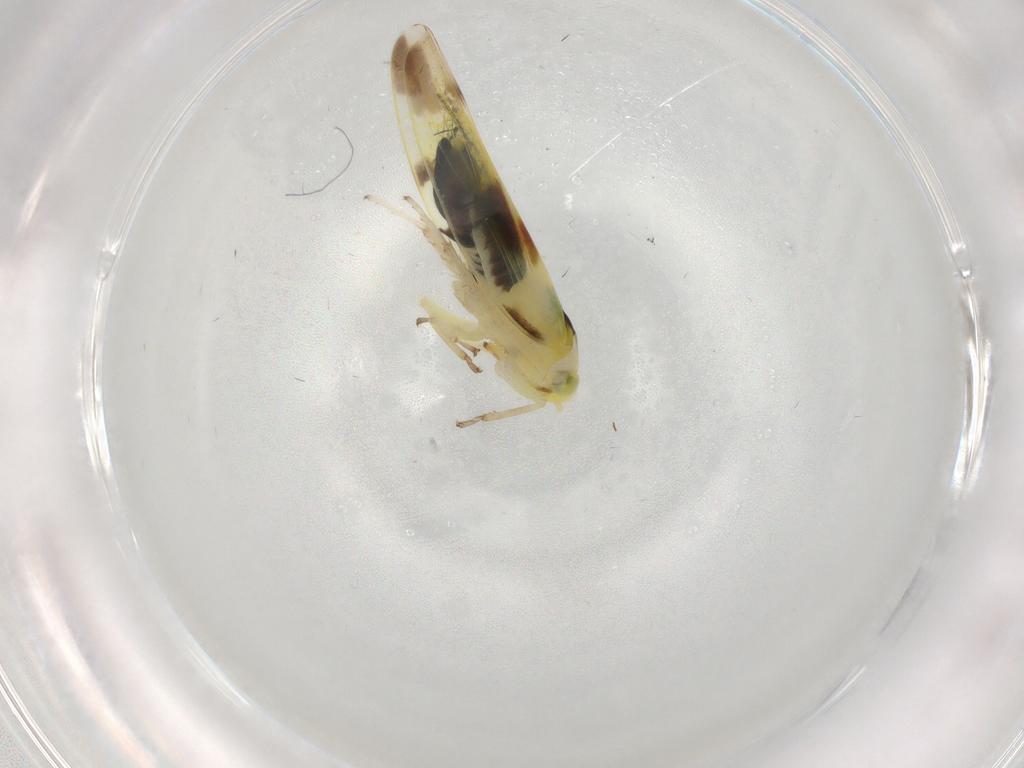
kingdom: Animalia
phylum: Arthropoda
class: Insecta
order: Hemiptera
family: Cicadellidae
